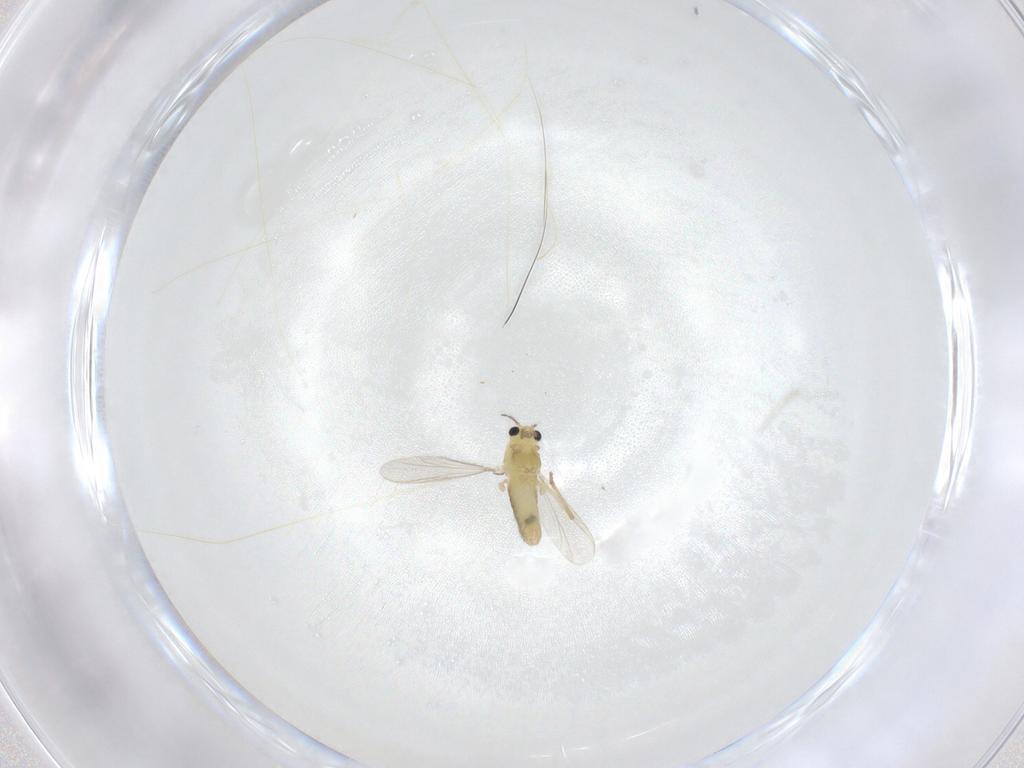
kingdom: Animalia
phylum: Arthropoda
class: Insecta
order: Diptera
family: Chironomidae
